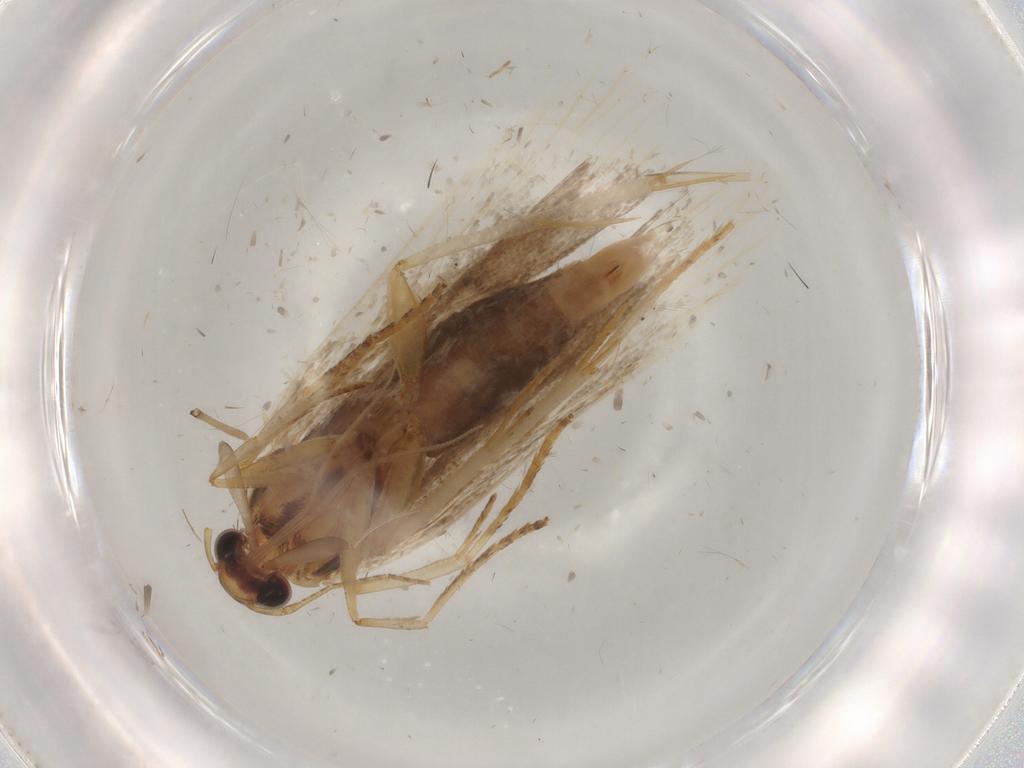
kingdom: Animalia
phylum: Arthropoda
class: Insecta
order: Lepidoptera
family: Gelechiidae
